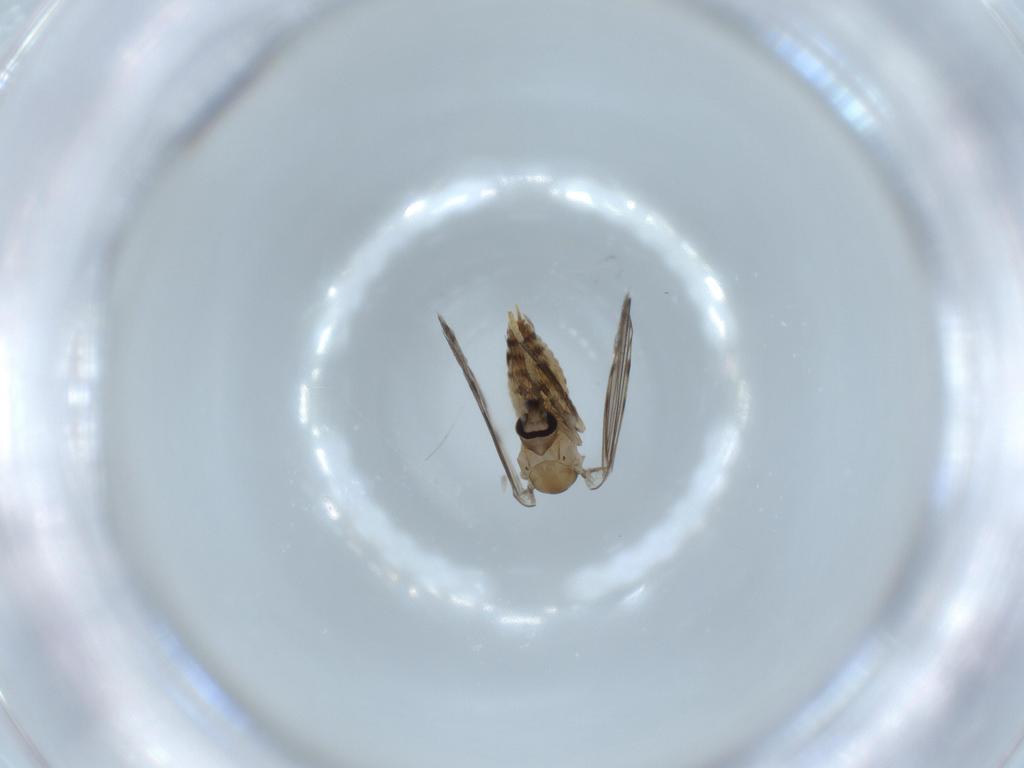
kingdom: Animalia
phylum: Arthropoda
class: Insecta
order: Diptera
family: Psychodidae
